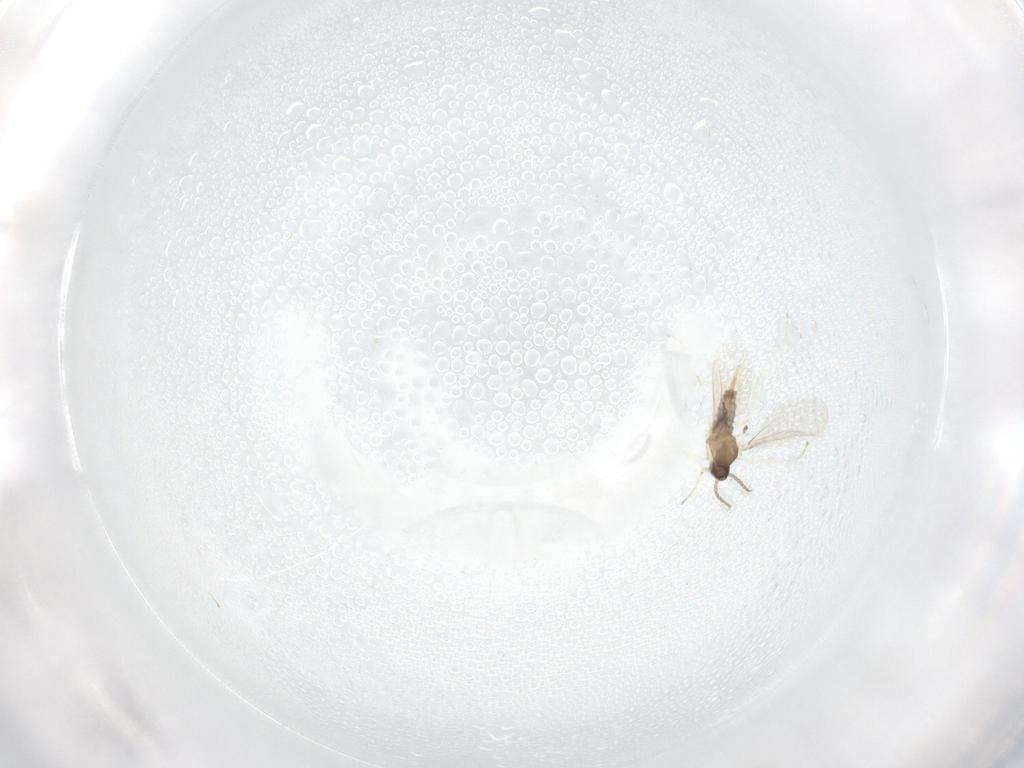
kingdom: Animalia
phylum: Arthropoda
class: Insecta
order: Diptera
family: Cecidomyiidae
